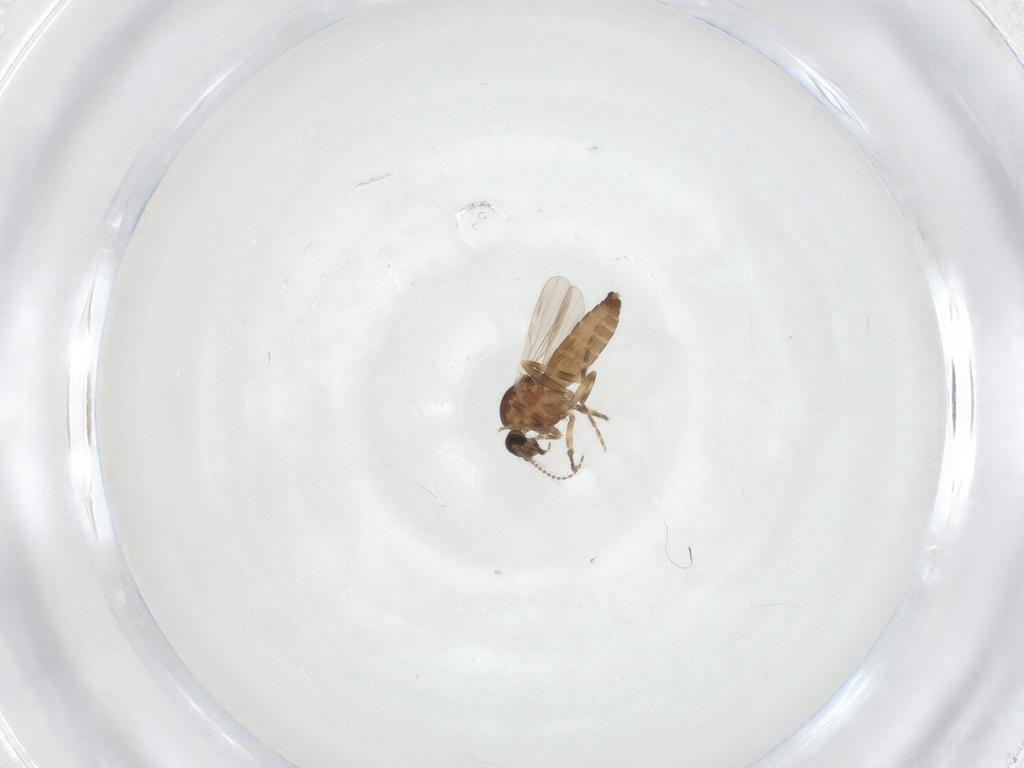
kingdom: Animalia
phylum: Arthropoda
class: Insecta
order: Diptera
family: Ceratopogonidae
